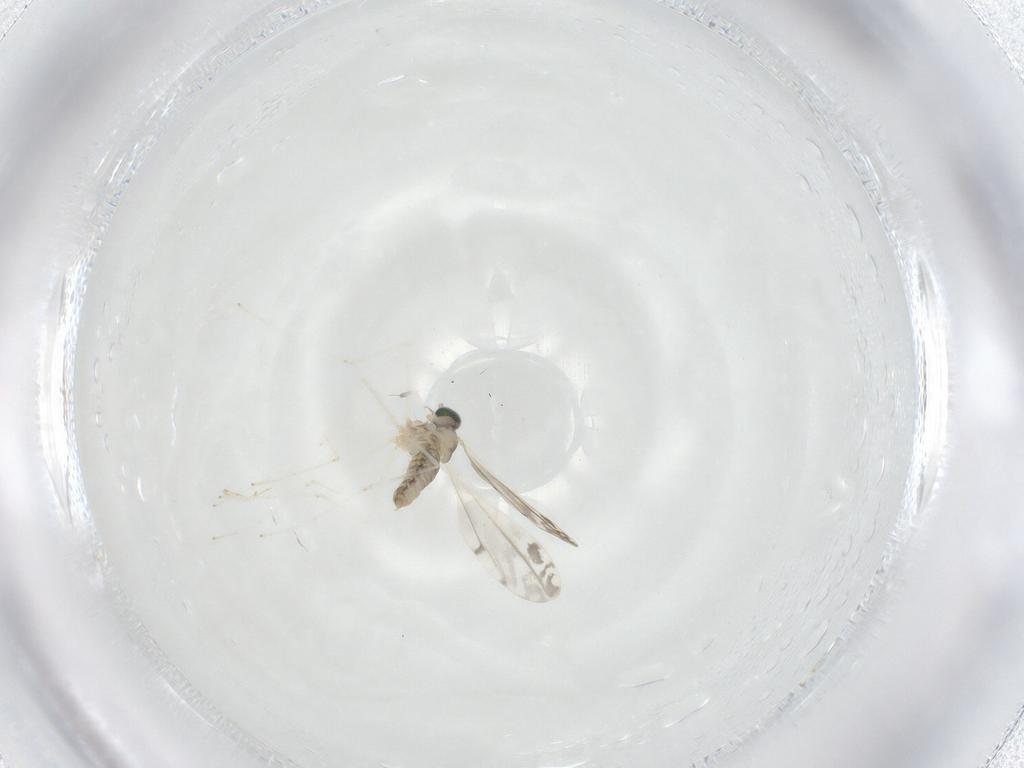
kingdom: Animalia
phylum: Arthropoda
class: Insecta
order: Diptera
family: Cecidomyiidae
